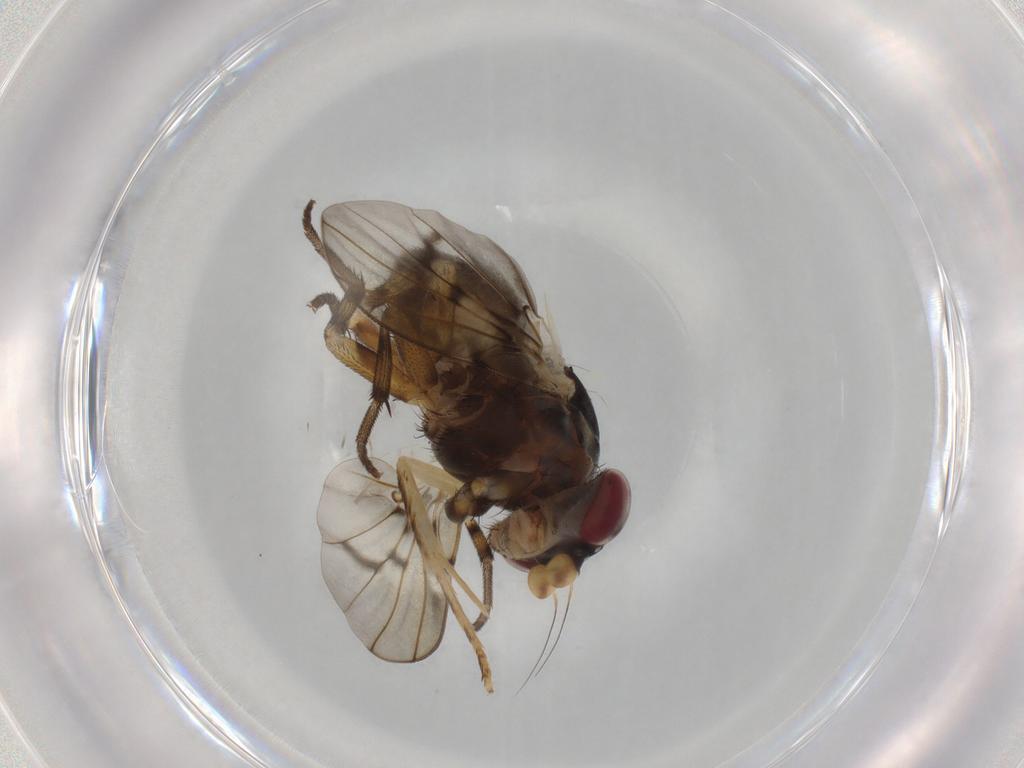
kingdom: Animalia
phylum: Arthropoda
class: Insecta
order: Diptera
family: Odiniidae
